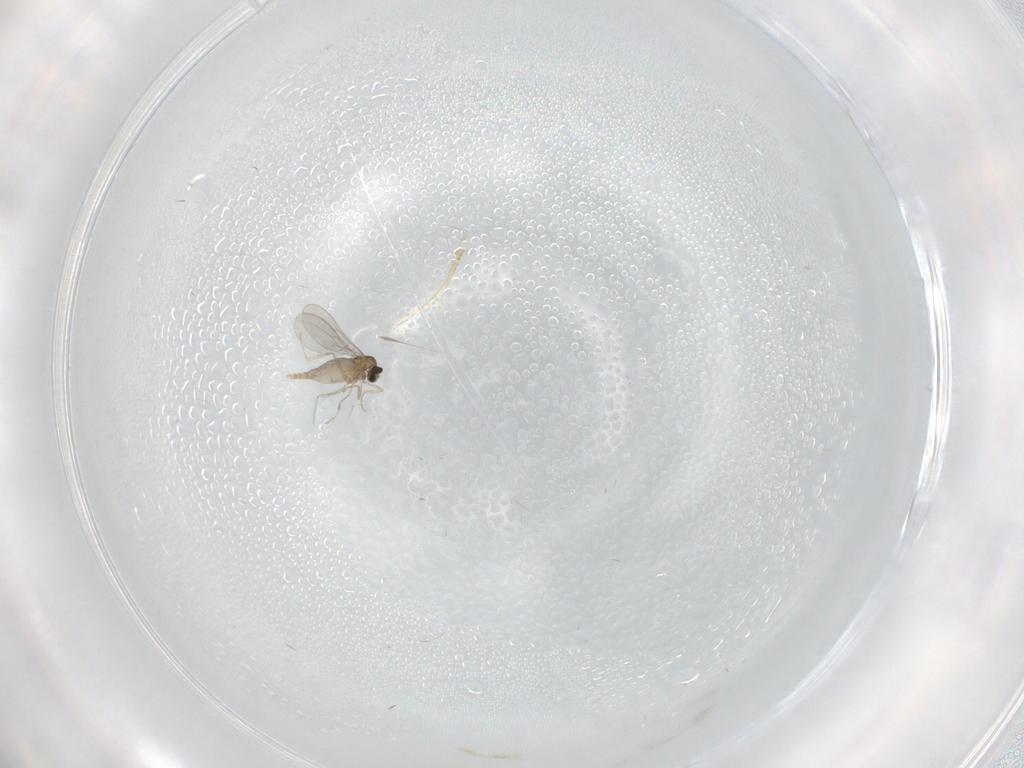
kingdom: Animalia
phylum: Arthropoda
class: Insecta
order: Diptera
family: Cecidomyiidae
